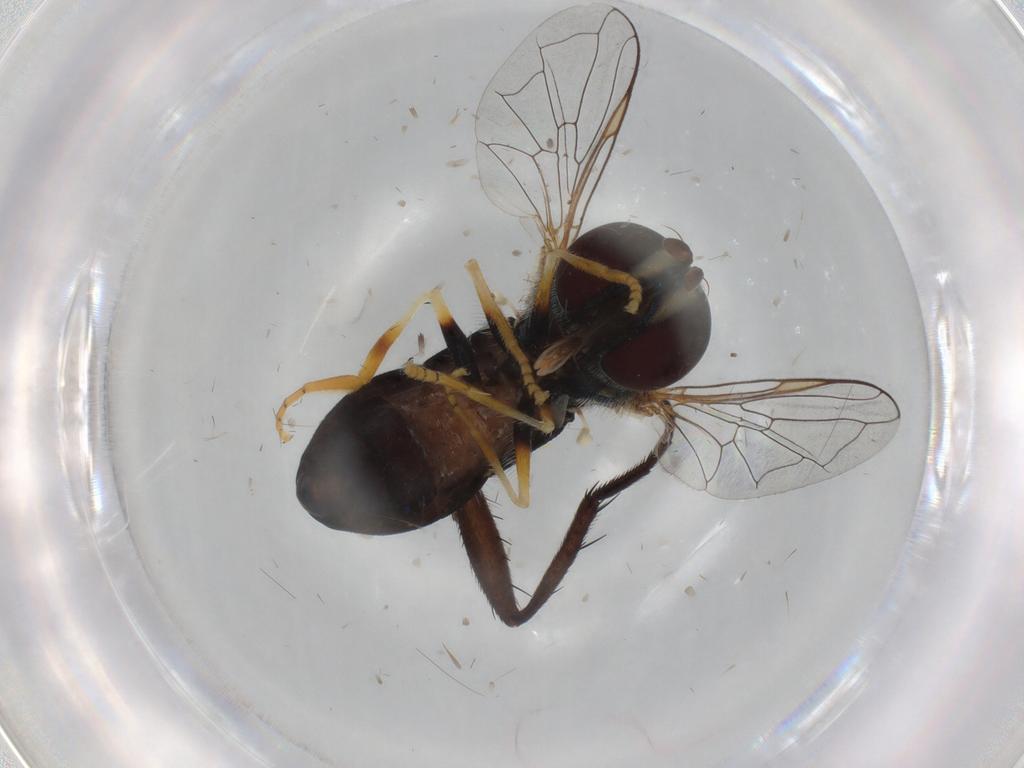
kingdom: Animalia
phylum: Arthropoda
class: Insecta
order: Diptera
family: Syrphidae
